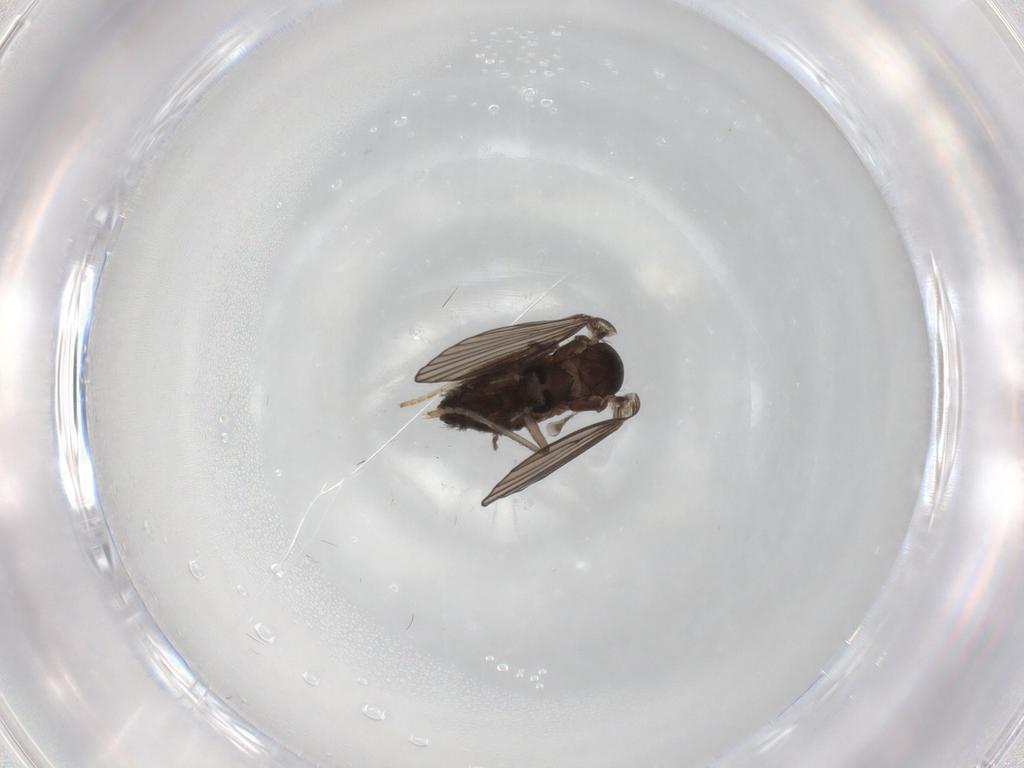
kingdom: Animalia
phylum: Arthropoda
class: Insecta
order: Diptera
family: Psychodidae
